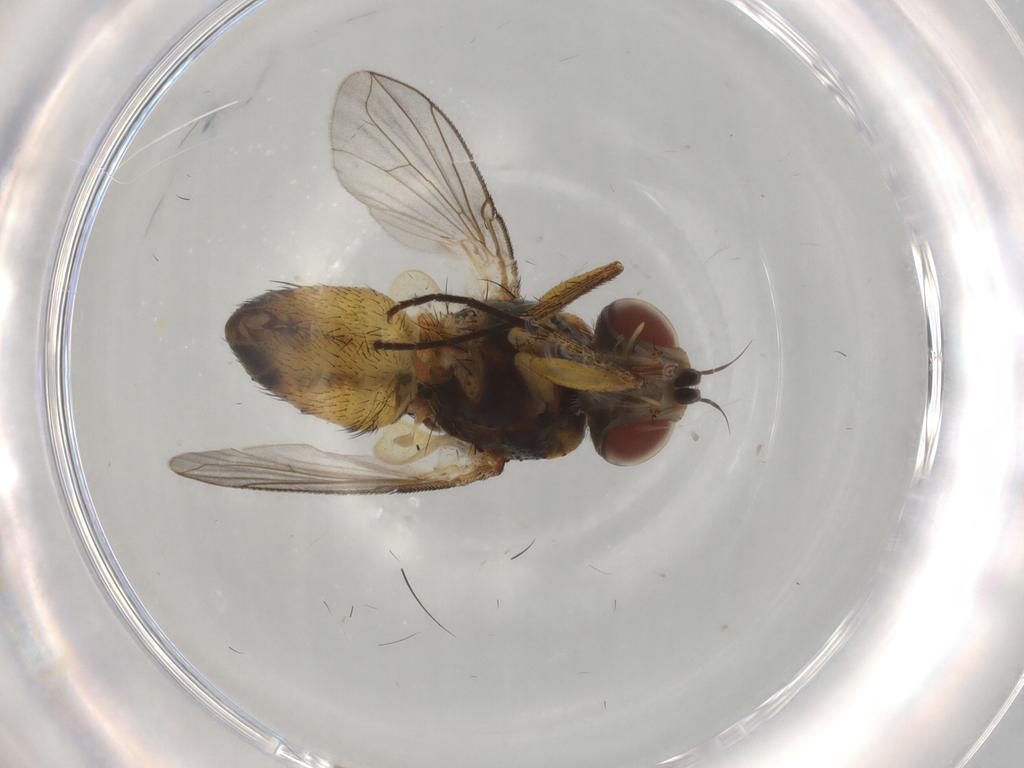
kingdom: Animalia
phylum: Arthropoda
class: Insecta
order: Diptera
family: Tachinidae
